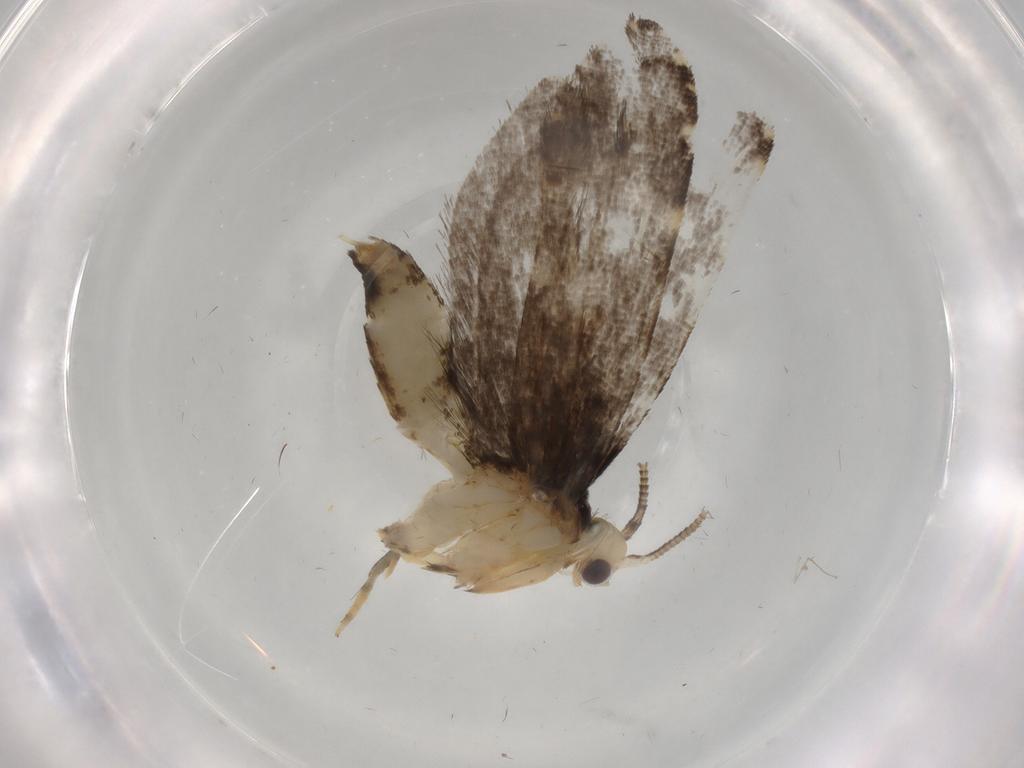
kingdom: Animalia
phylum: Arthropoda
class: Insecta
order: Lepidoptera
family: Tineidae
